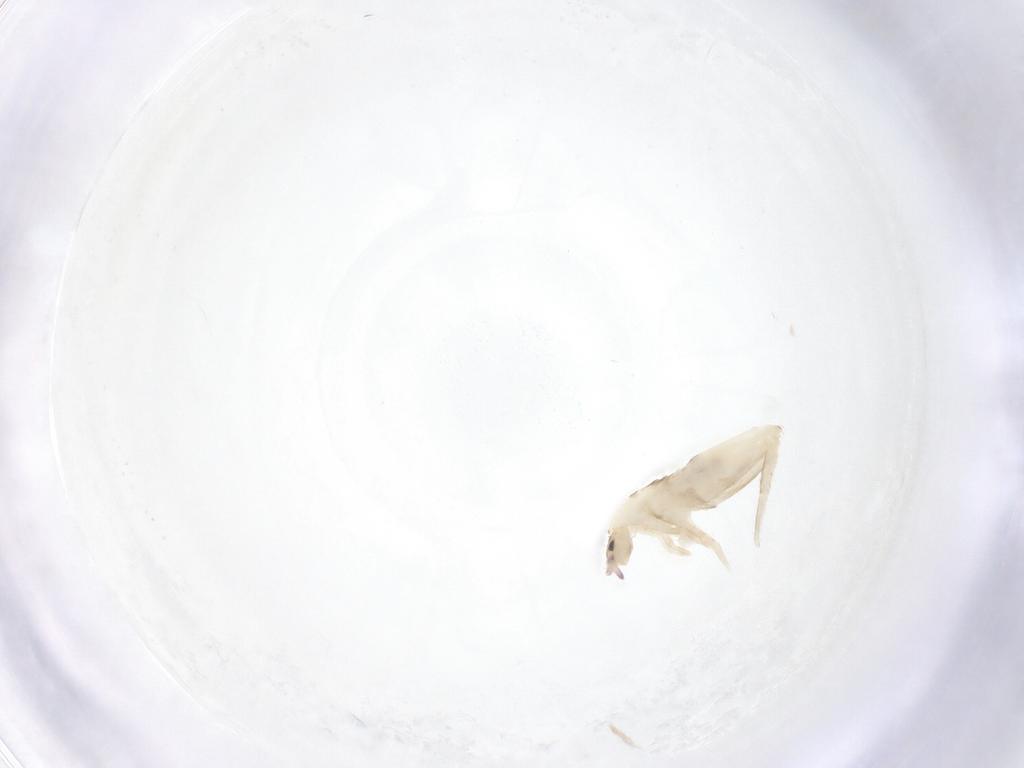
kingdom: Animalia
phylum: Arthropoda
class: Collembola
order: Entomobryomorpha
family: Entomobryidae
